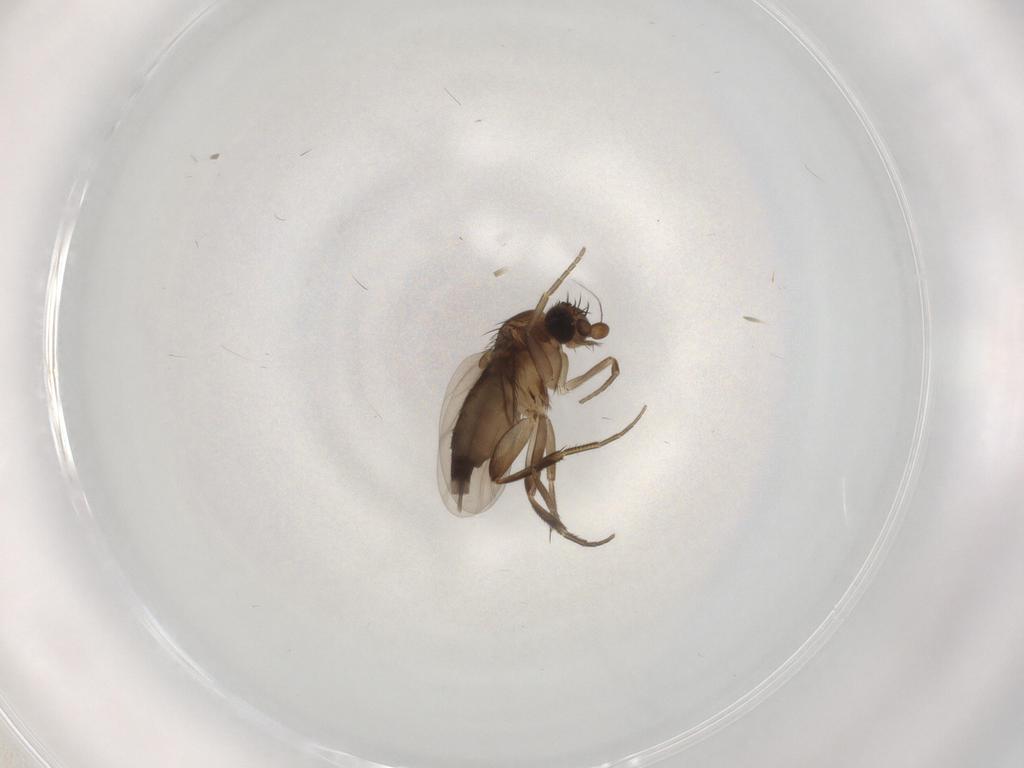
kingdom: Animalia
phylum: Arthropoda
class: Insecta
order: Diptera
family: Phoridae
